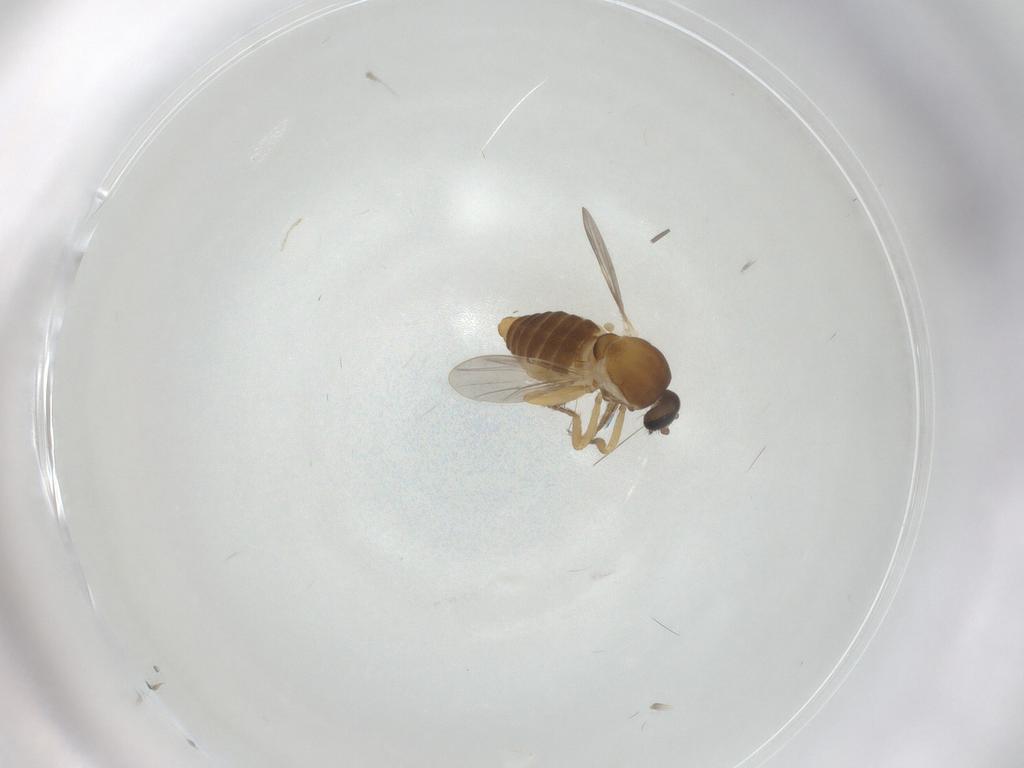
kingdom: Animalia
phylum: Arthropoda
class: Insecta
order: Diptera
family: Ceratopogonidae
